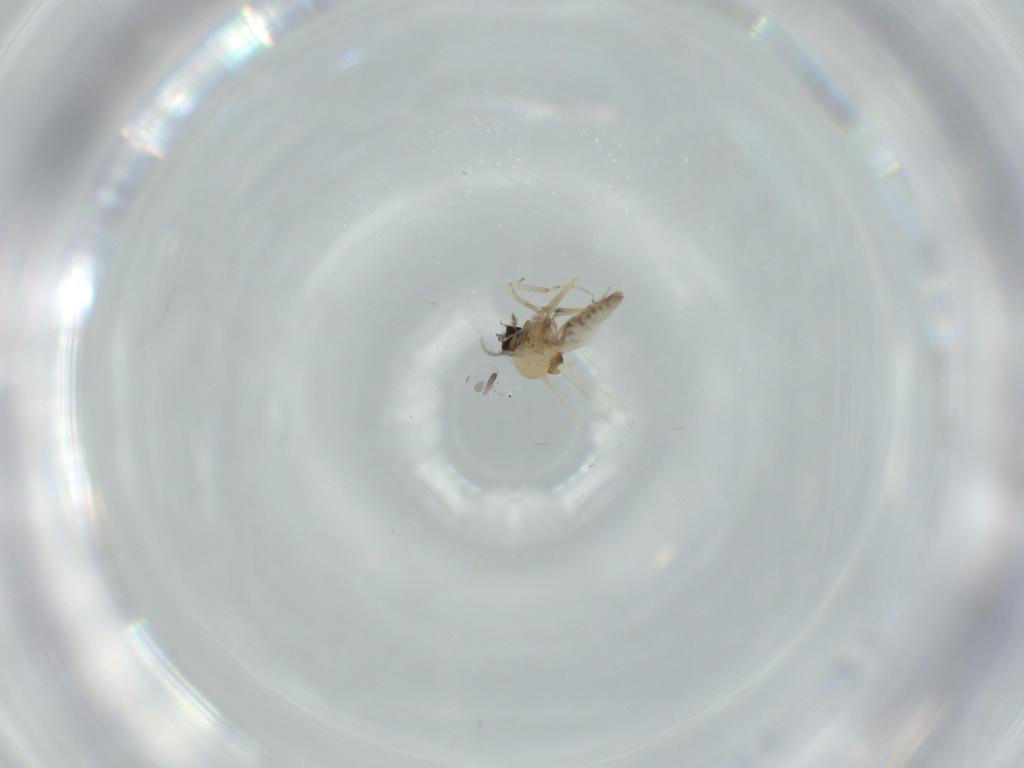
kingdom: Animalia
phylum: Arthropoda
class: Insecta
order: Diptera
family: Ceratopogonidae
